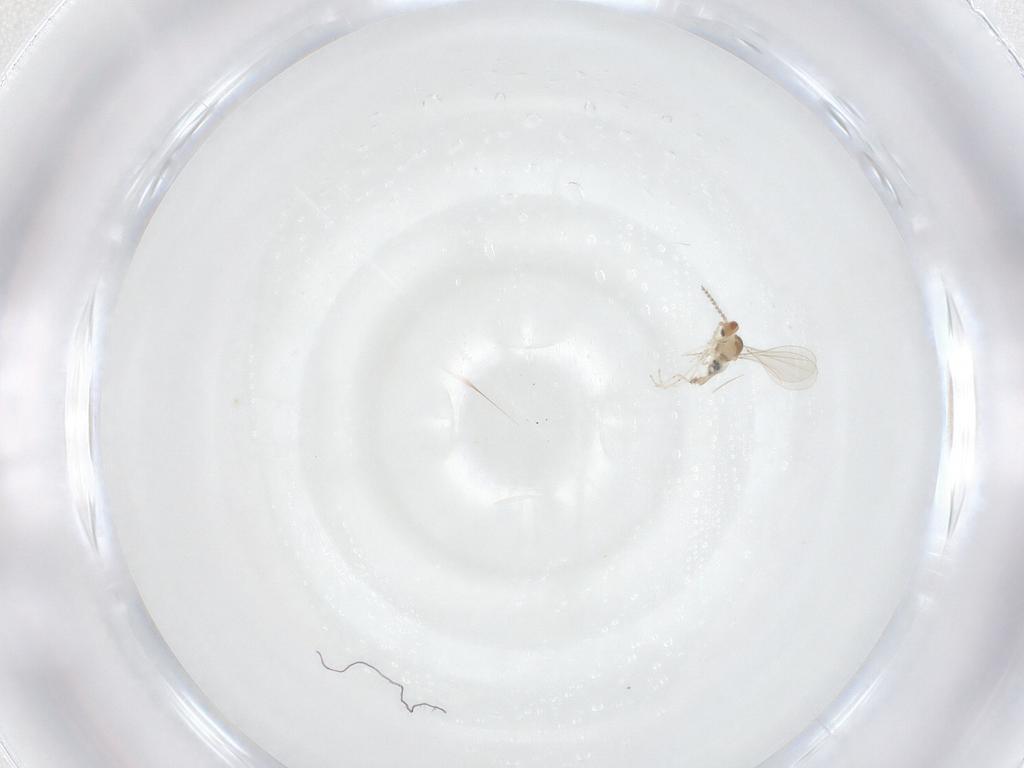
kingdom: Animalia
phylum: Arthropoda
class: Insecta
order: Diptera
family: Cecidomyiidae
